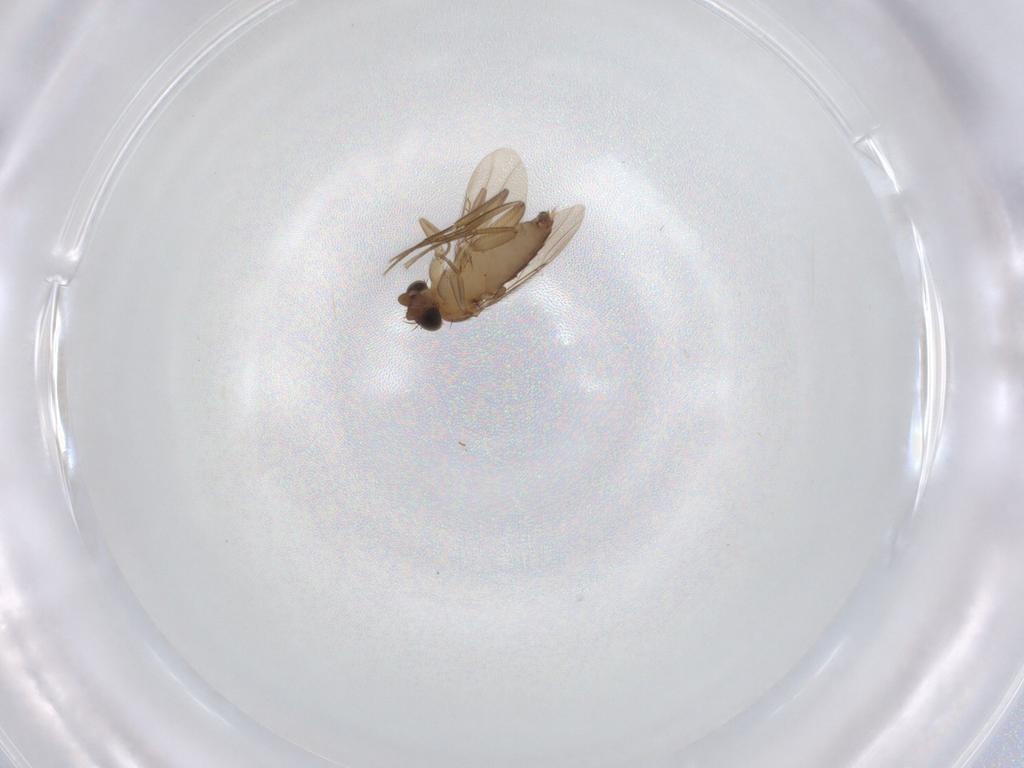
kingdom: Animalia
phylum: Arthropoda
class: Insecta
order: Diptera
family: Phoridae
